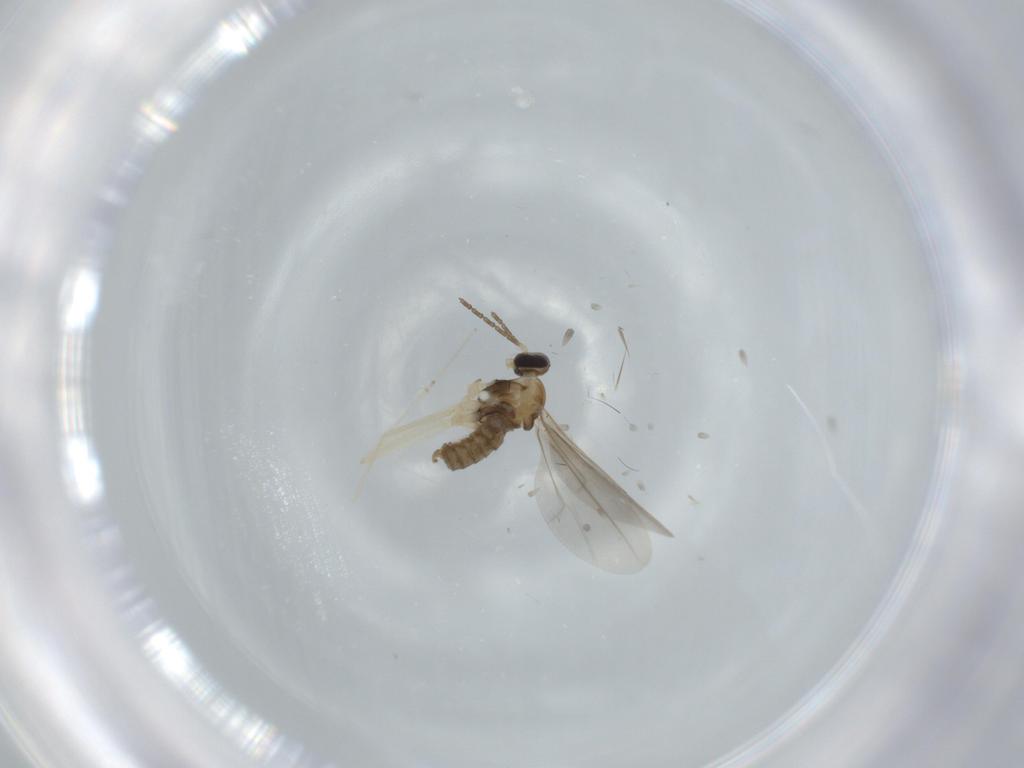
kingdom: Animalia
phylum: Arthropoda
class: Insecta
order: Diptera
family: Cecidomyiidae
